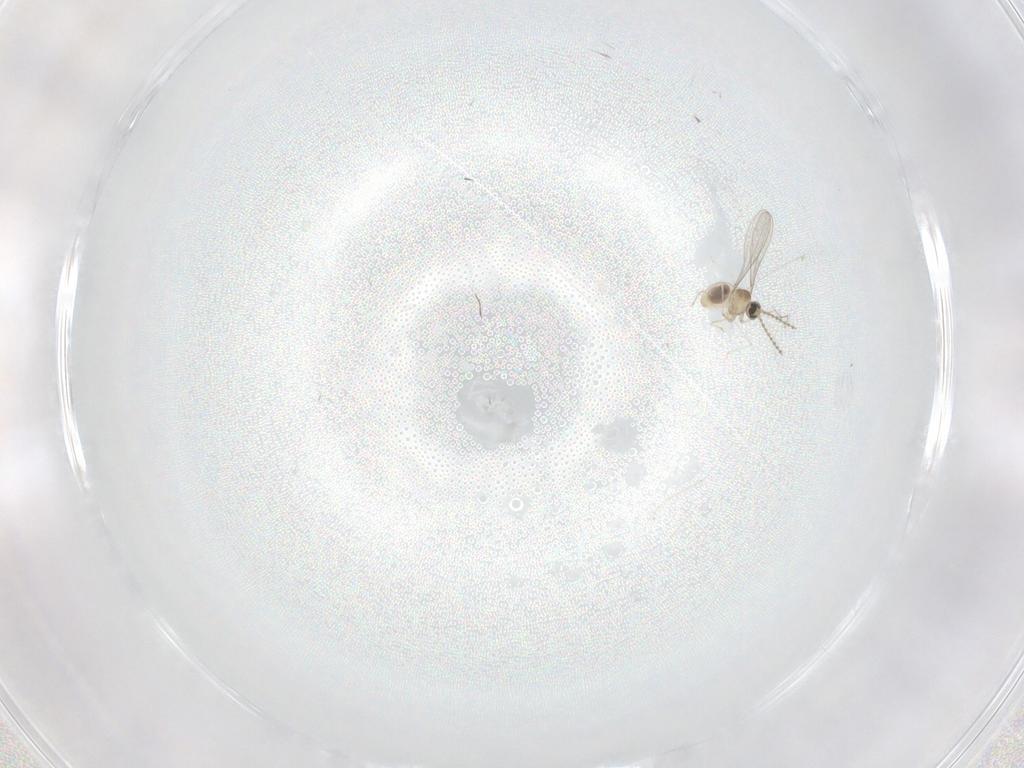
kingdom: Animalia
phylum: Arthropoda
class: Insecta
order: Diptera
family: Cecidomyiidae
